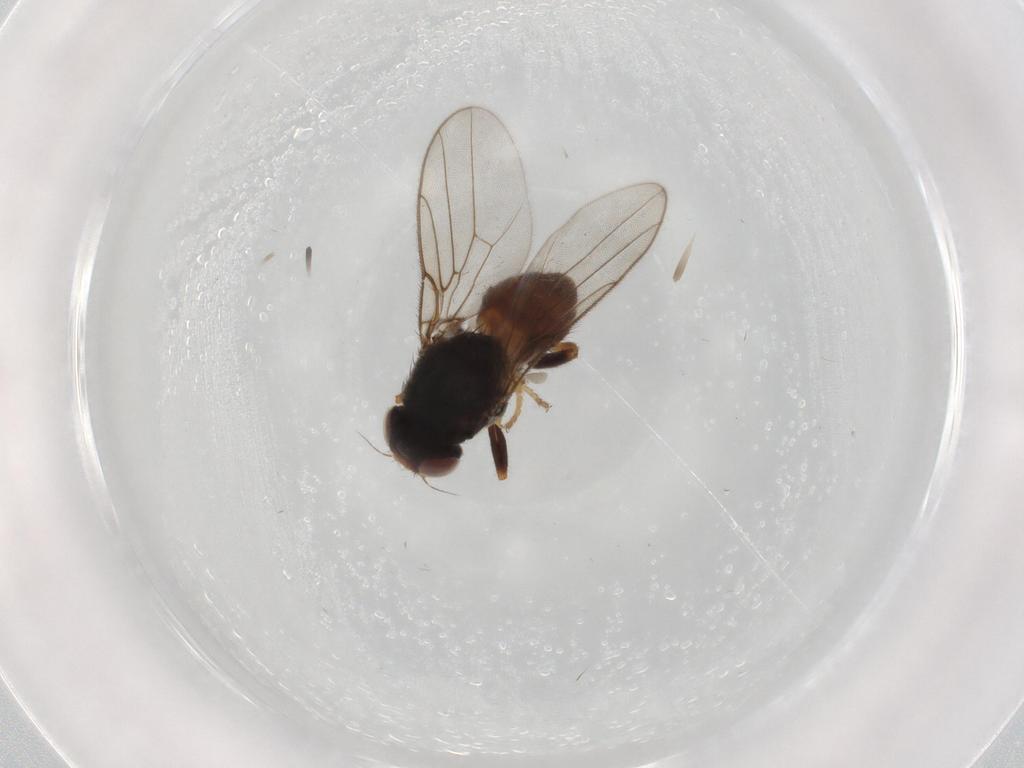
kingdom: Animalia
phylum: Arthropoda
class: Insecta
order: Diptera
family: Chloropidae
